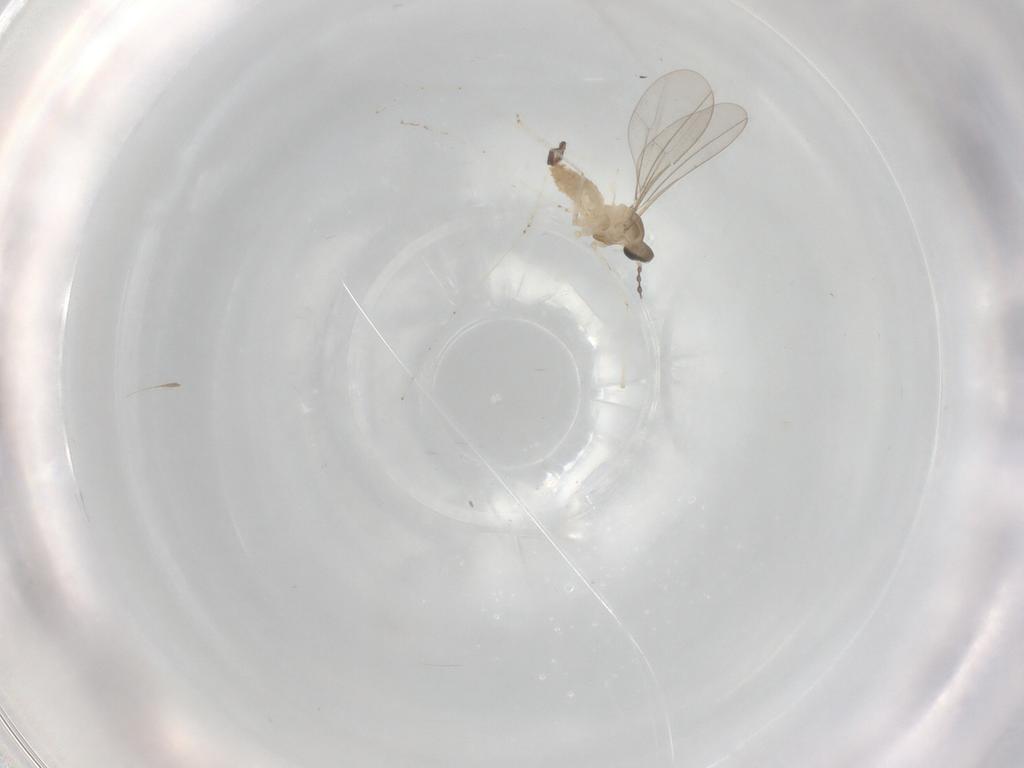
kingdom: Animalia
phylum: Arthropoda
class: Insecta
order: Diptera
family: Cecidomyiidae
